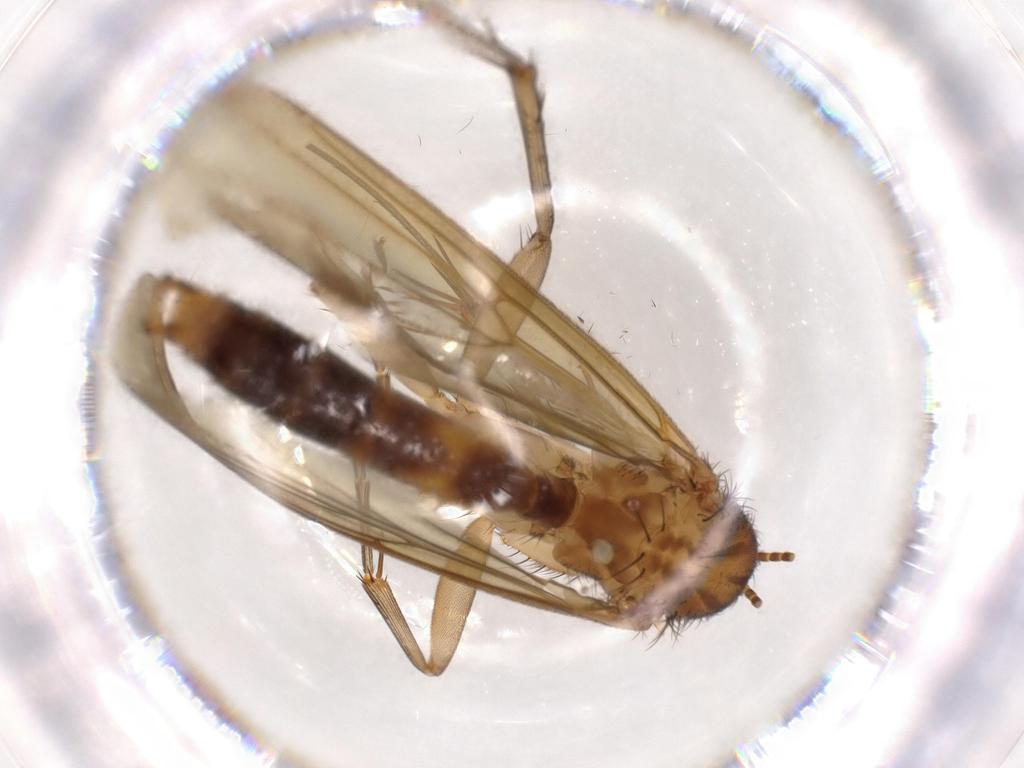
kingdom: Animalia
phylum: Arthropoda
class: Insecta
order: Diptera
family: Chironomidae
